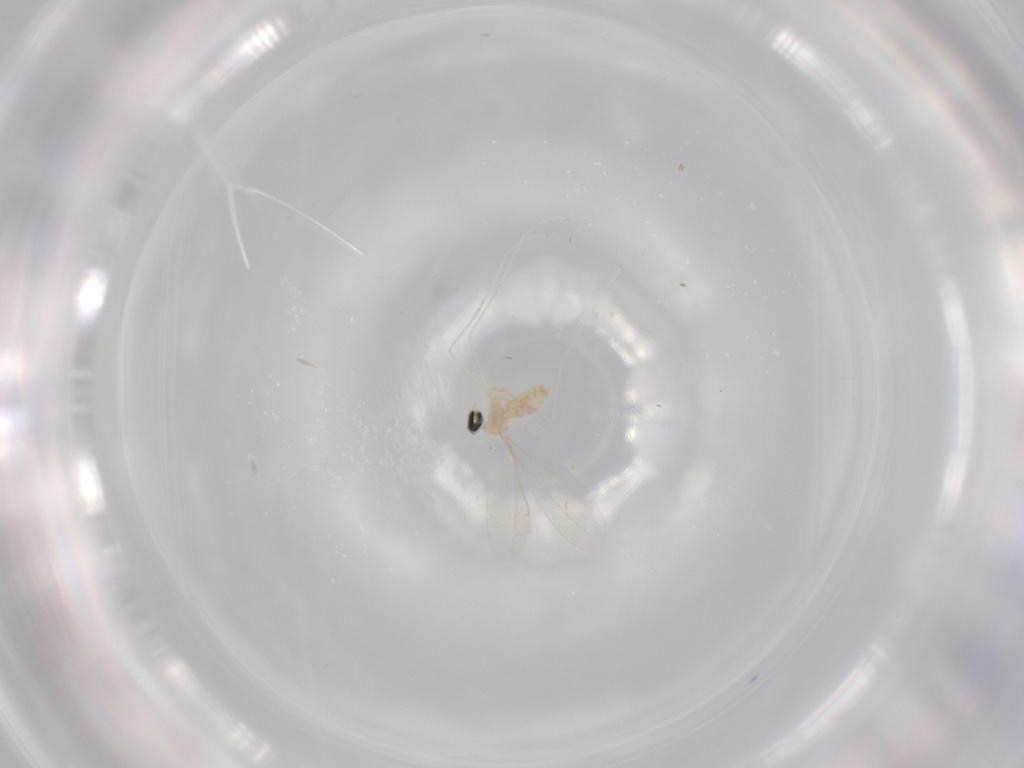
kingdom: Animalia
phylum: Arthropoda
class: Insecta
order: Diptera
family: Cecidomyiidae
